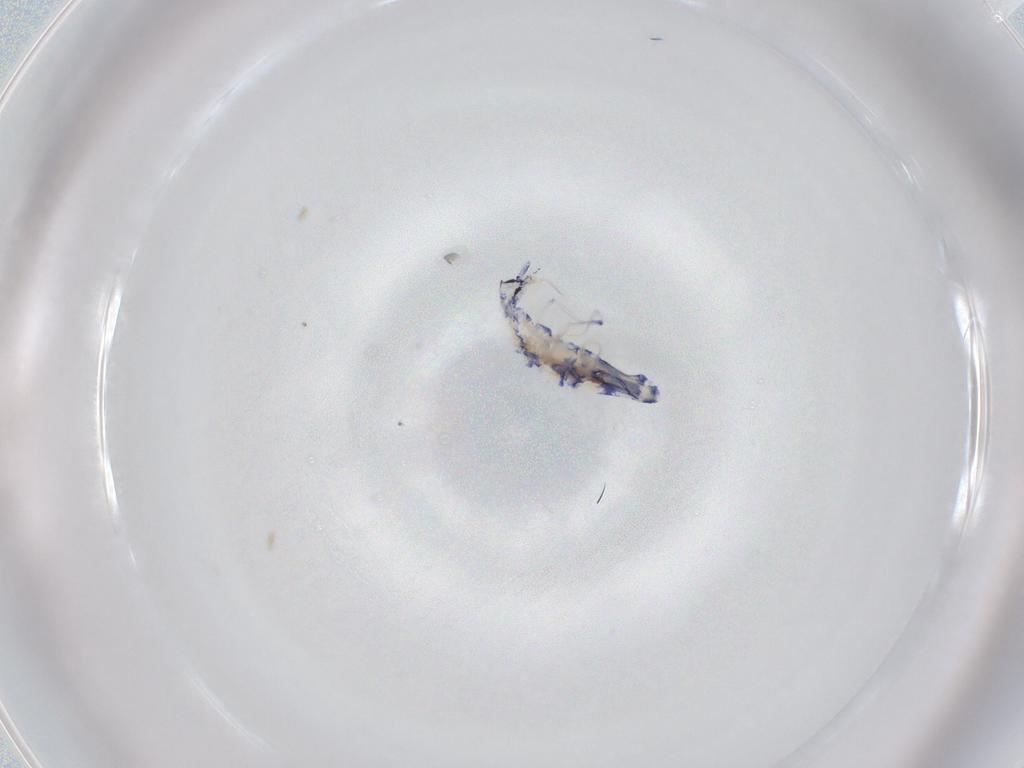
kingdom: Animalia
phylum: Arthropoda
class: Collembola
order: Entomobryomorpha
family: Entomobryidae
